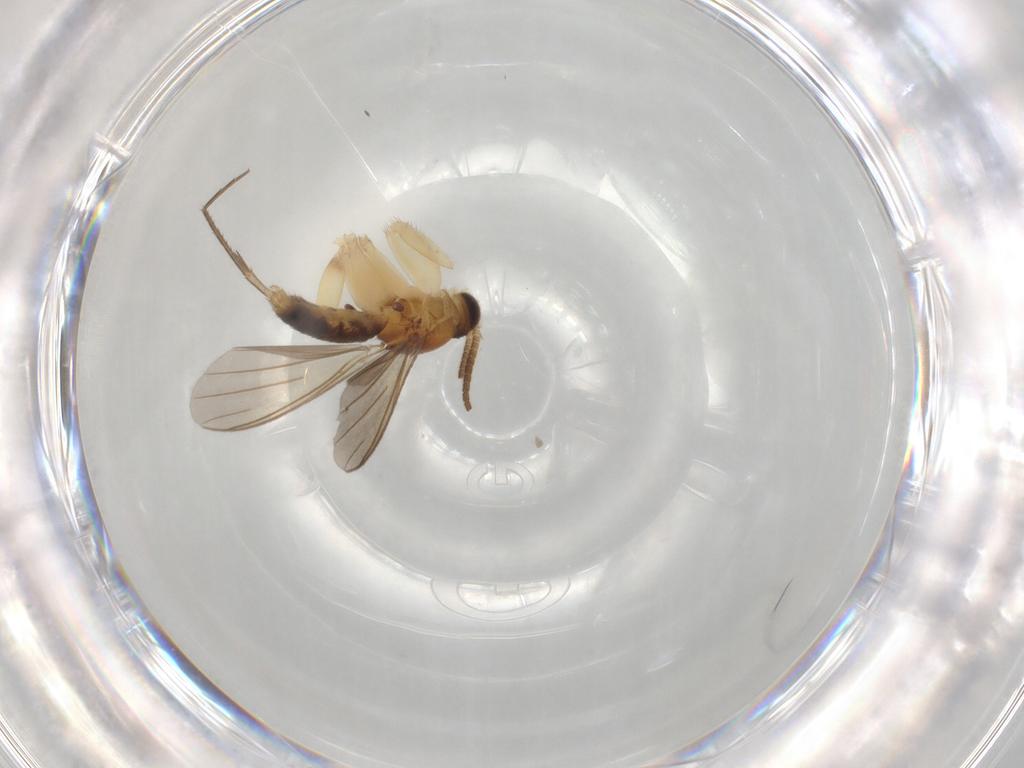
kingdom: Animalia
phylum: Arthropoda
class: Insecta
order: Diptera
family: Mycetophilidae
